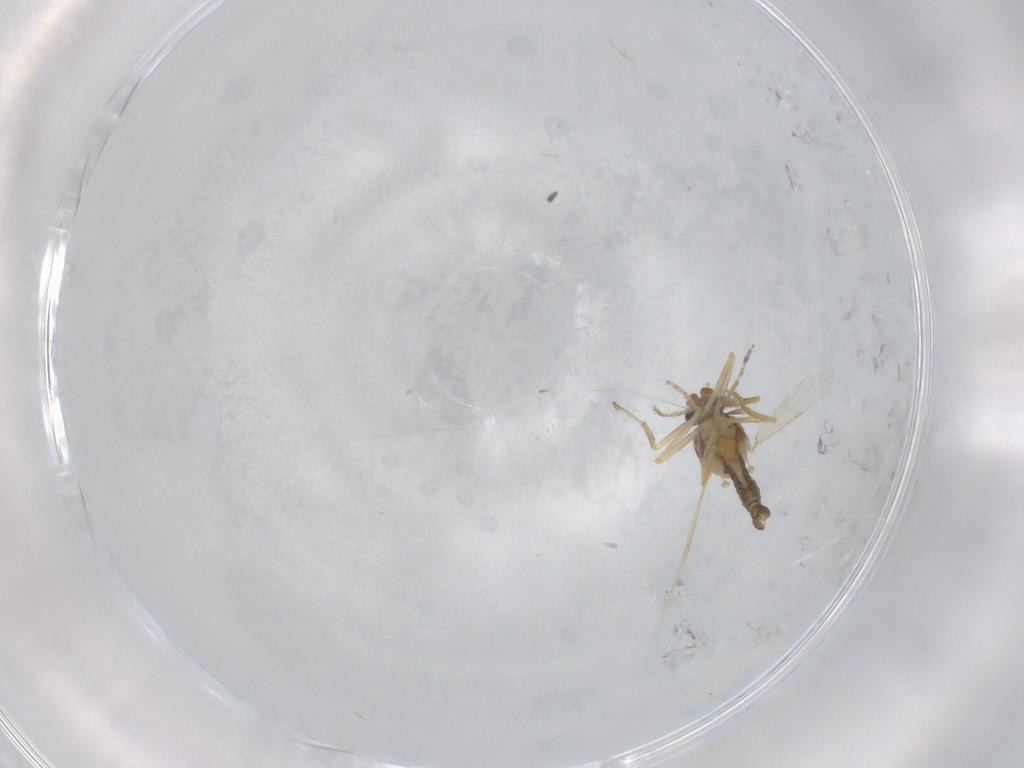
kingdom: Animalia
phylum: Arthropoda
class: Insecta
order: Diptera
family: Ceratopogonidae
